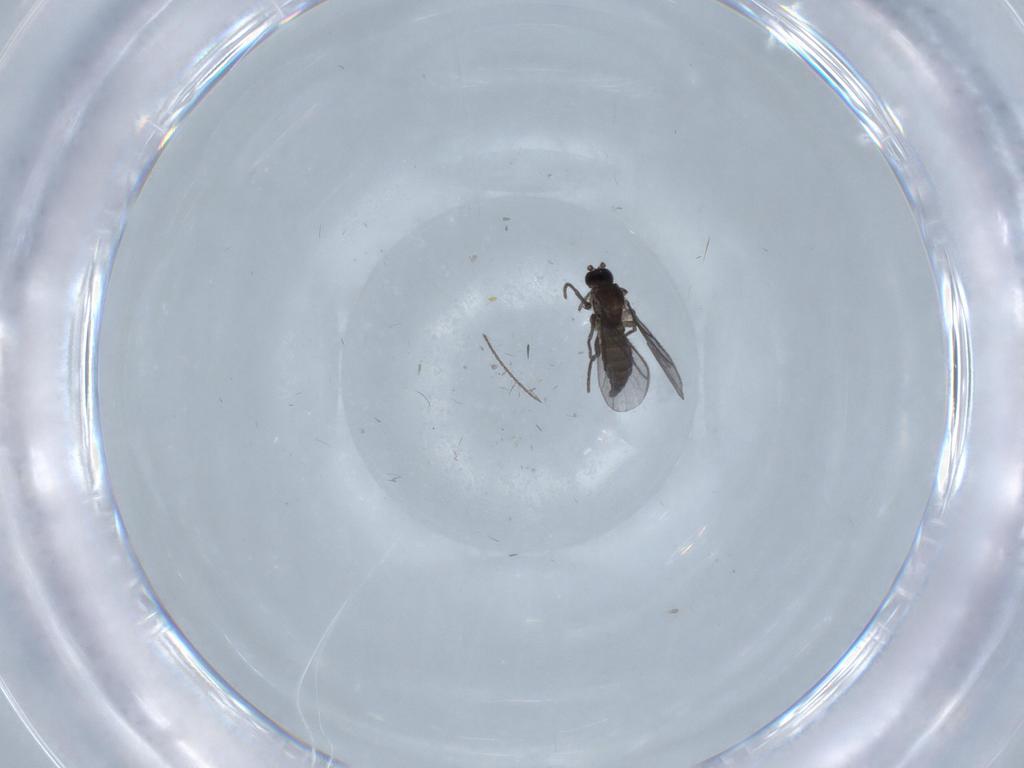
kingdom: Animalia
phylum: Arthropoda
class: Insecta
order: Diptera
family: Cecidomyiidae
